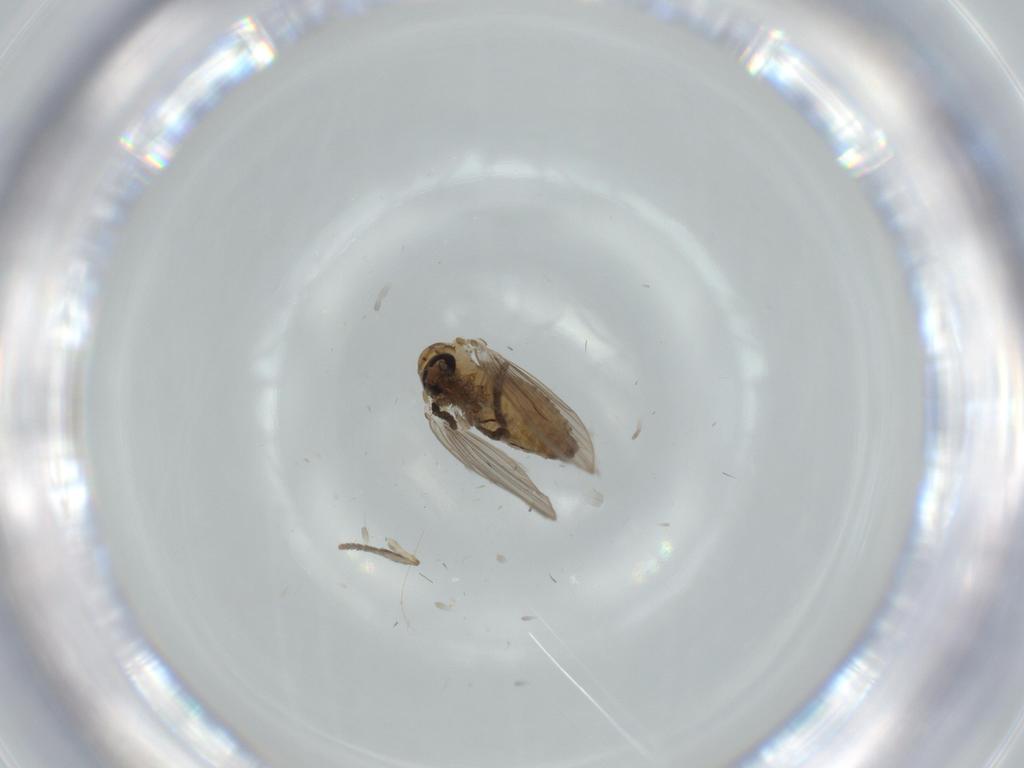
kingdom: Animalia
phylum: Arthropoda
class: Insecta
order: Diptera
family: Psychodidae
